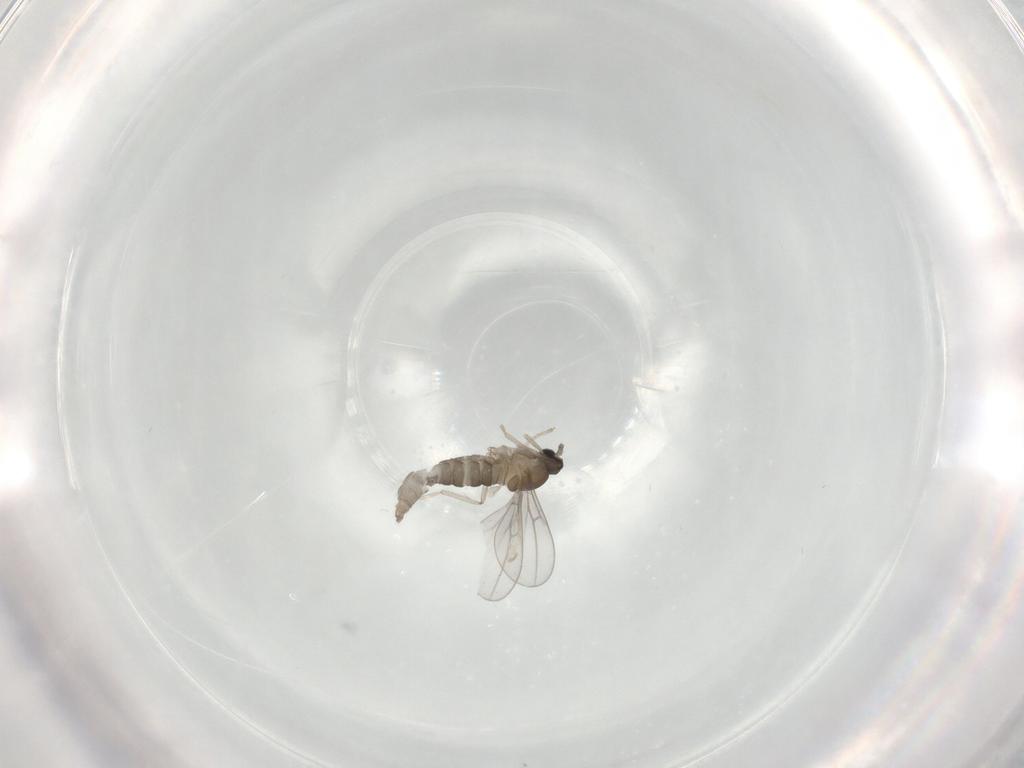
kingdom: Animalia
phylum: Arthropoda
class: Insecta
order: Diptera
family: Cecidomyiidae
